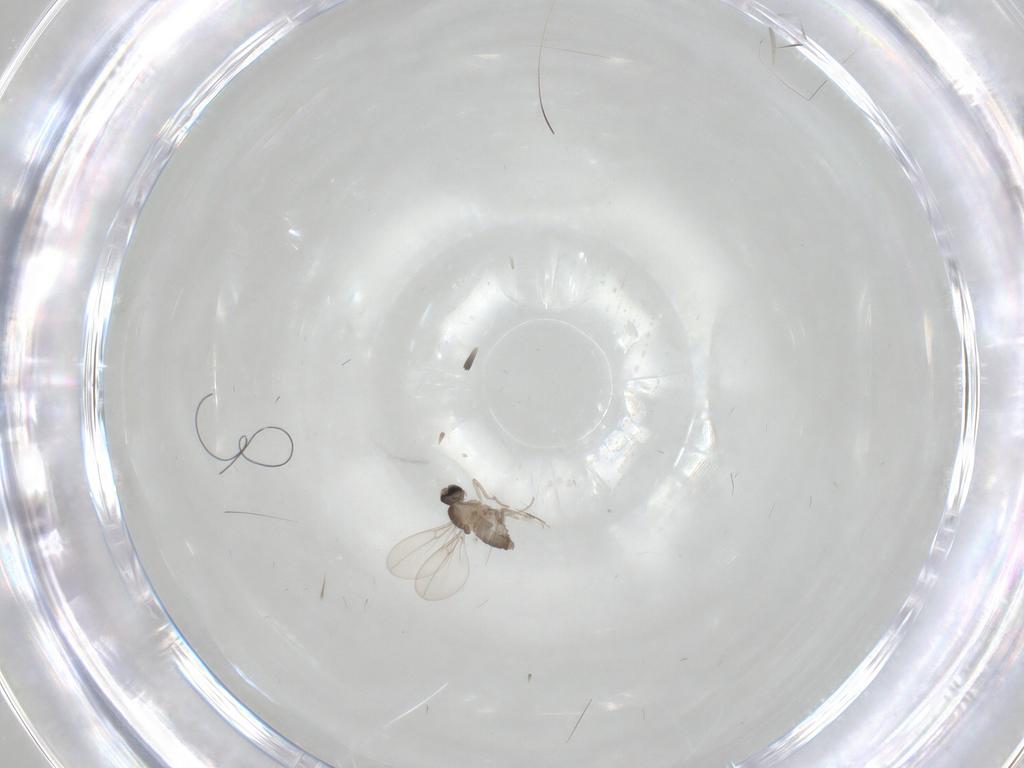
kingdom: Animalia
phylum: Arthropoda
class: Insecta
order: Diptera
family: Cecidomyiidae
